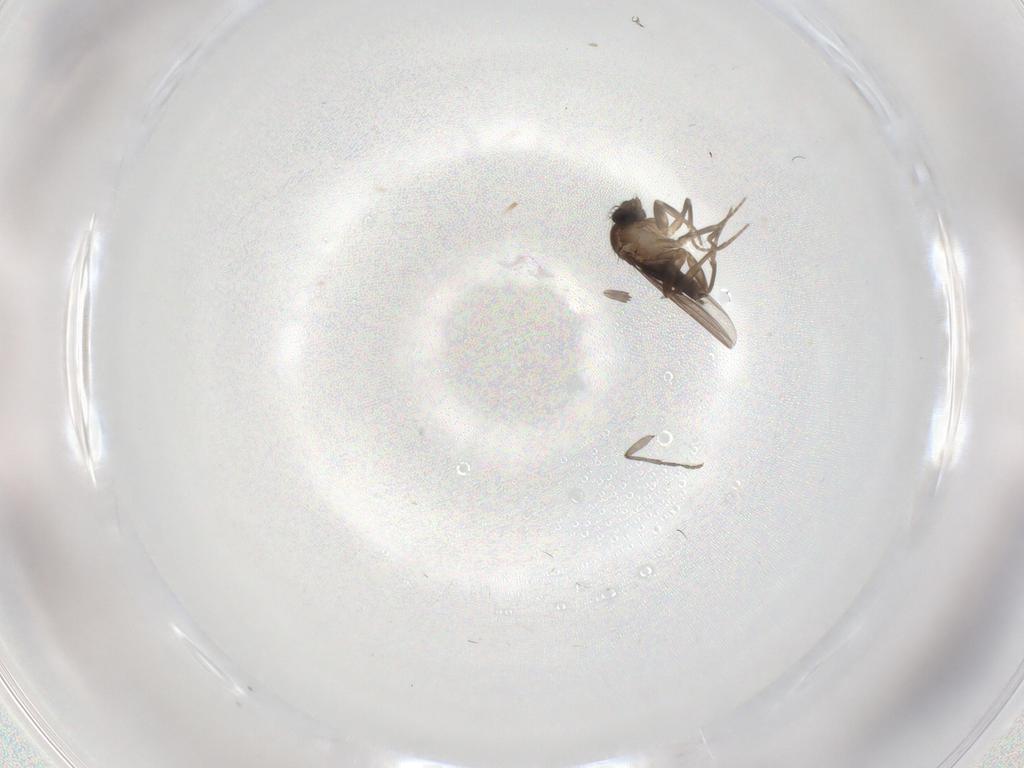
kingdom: Animalia
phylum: Arthropoda
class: Insecta
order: Diptera
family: Sciaridae
